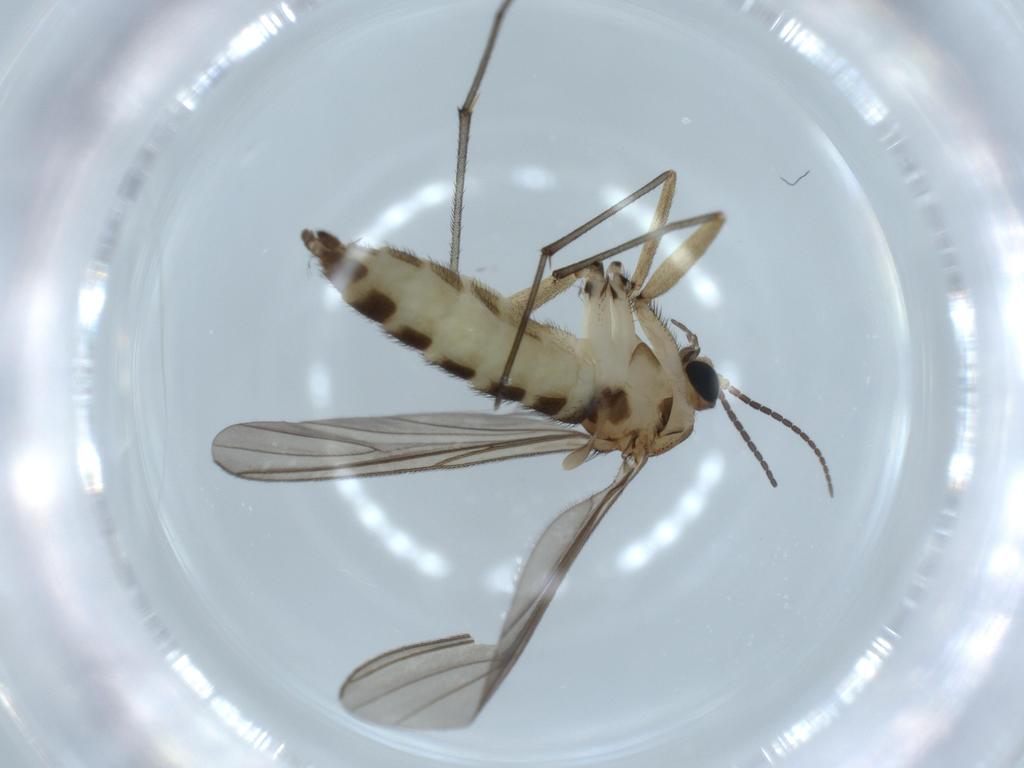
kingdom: Animalia
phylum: Arthropoda
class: Insecta
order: Diptera
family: Sciaridae
